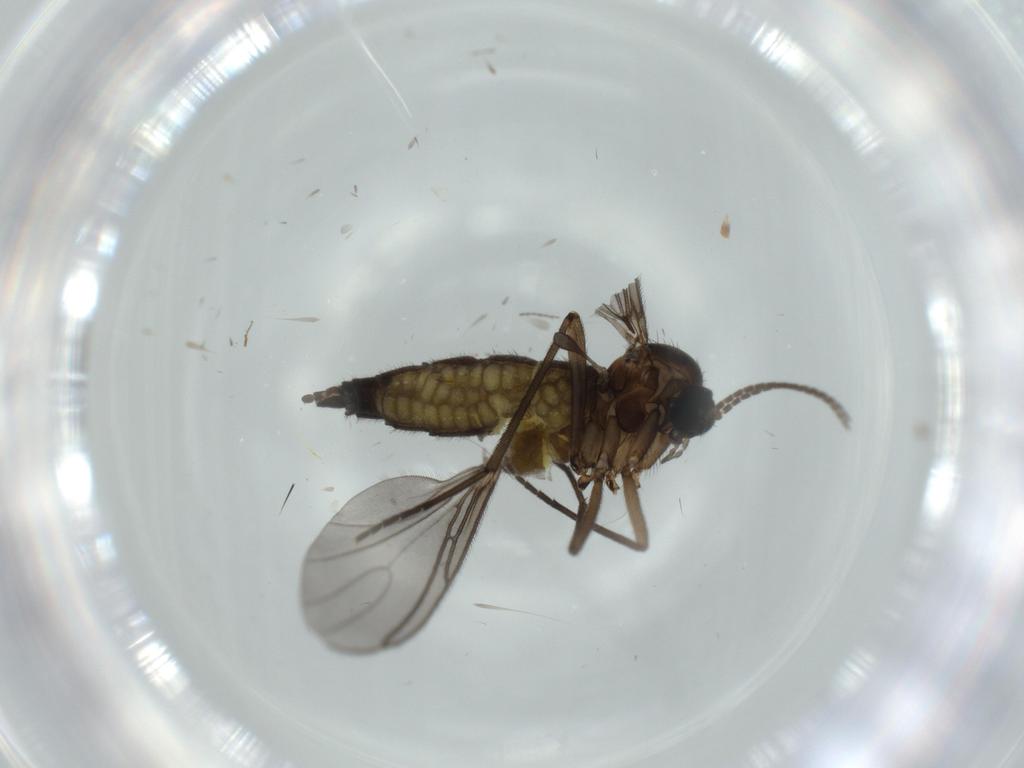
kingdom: Animalia
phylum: Arthropoda
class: Insecta
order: Diptera
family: Sciaridae
